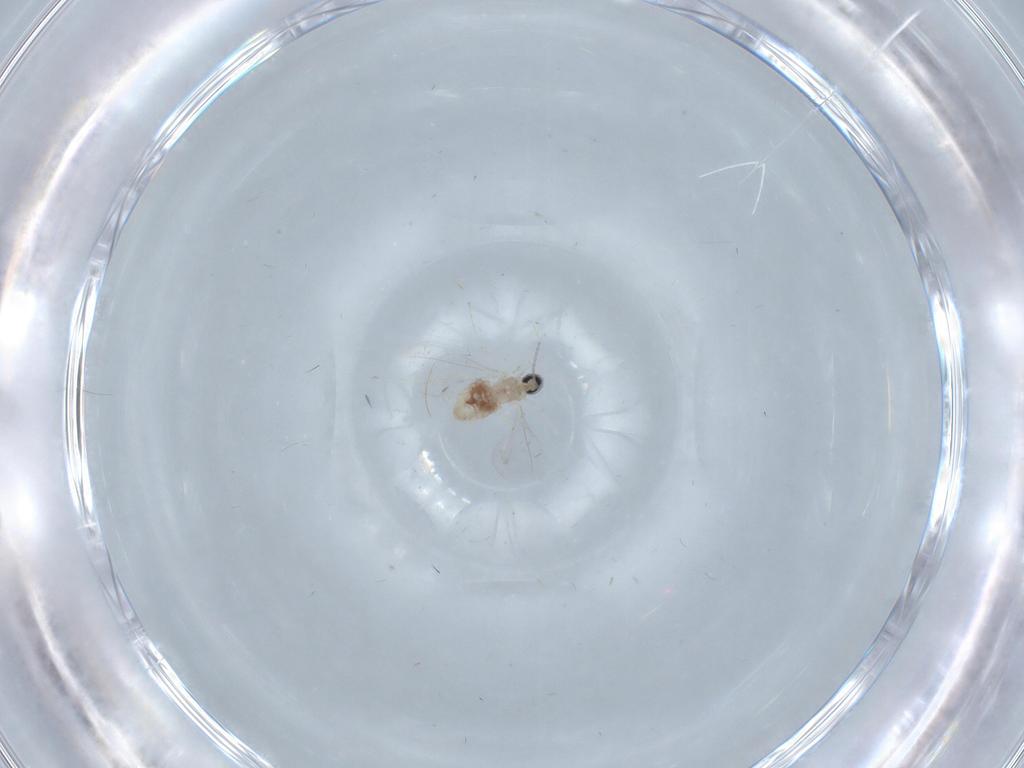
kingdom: Animalia
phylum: Arthropoda
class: Insecta
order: Diptera
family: Cecidomyiidae
